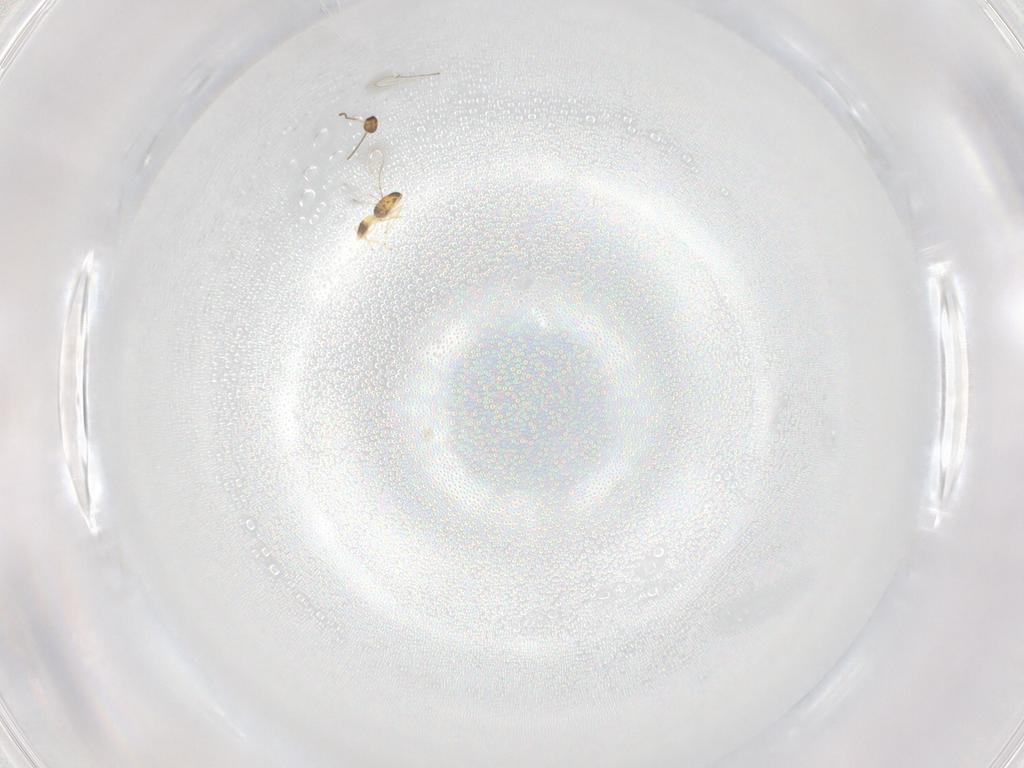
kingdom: Animalia
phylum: Arthropoda
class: Insecta
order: Hymenoptera
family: Mymaridae
